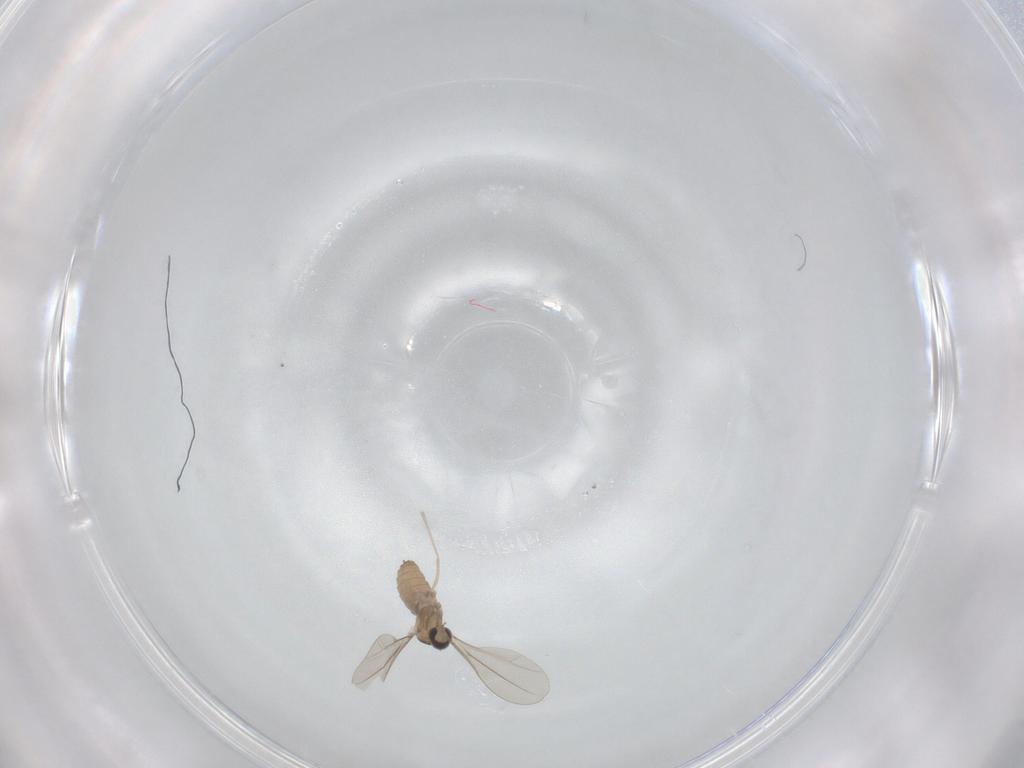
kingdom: Animalia
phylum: Arthropoda
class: Insecta
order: Diptera
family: Cecidomyiidae
